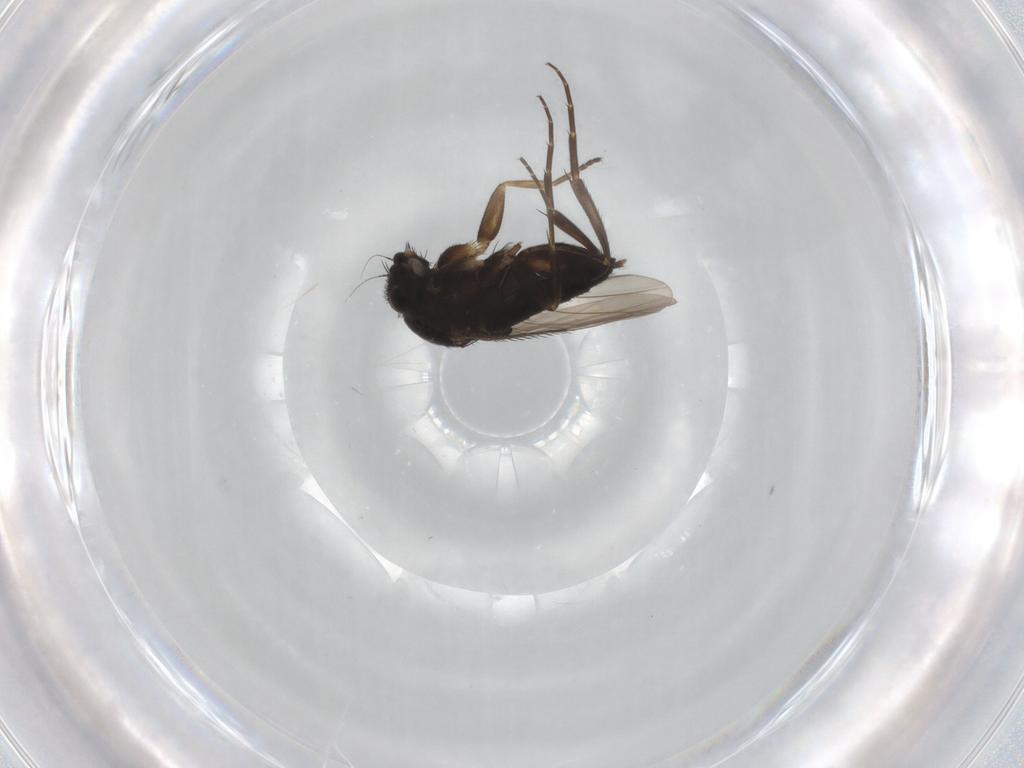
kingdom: Animalia
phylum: Arthropoda
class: Insecta
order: Diptera
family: Phoridae
